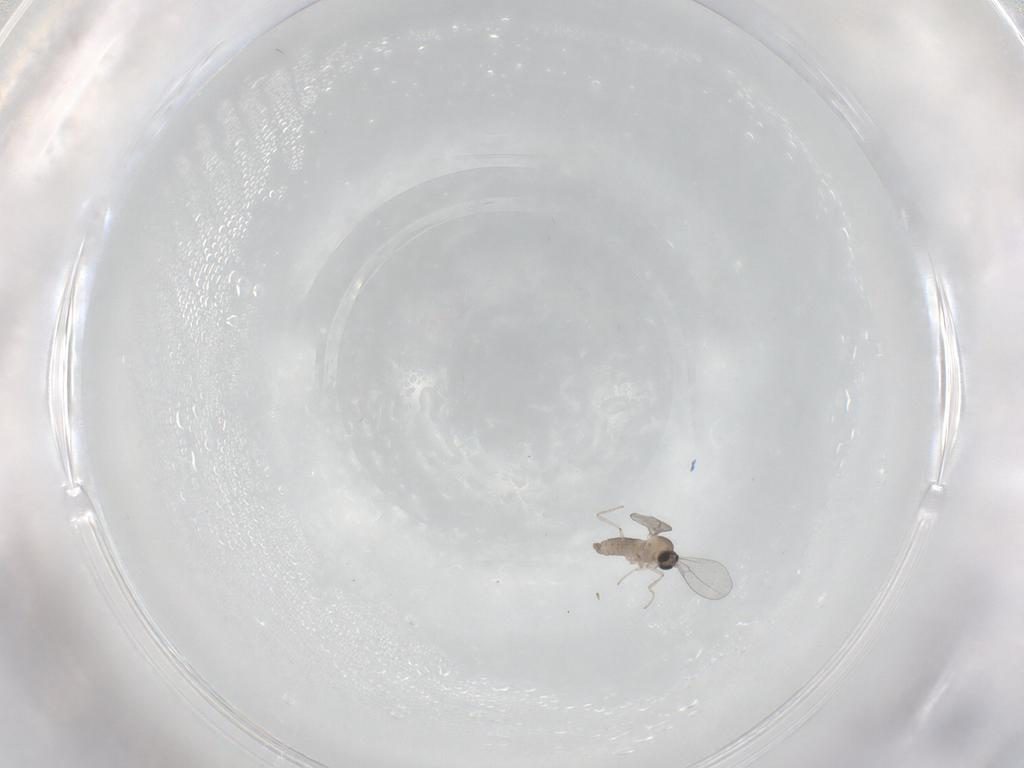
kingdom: Animalia
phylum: Arthropoda
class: Insecta
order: Diptera
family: Cecidomyiidae
